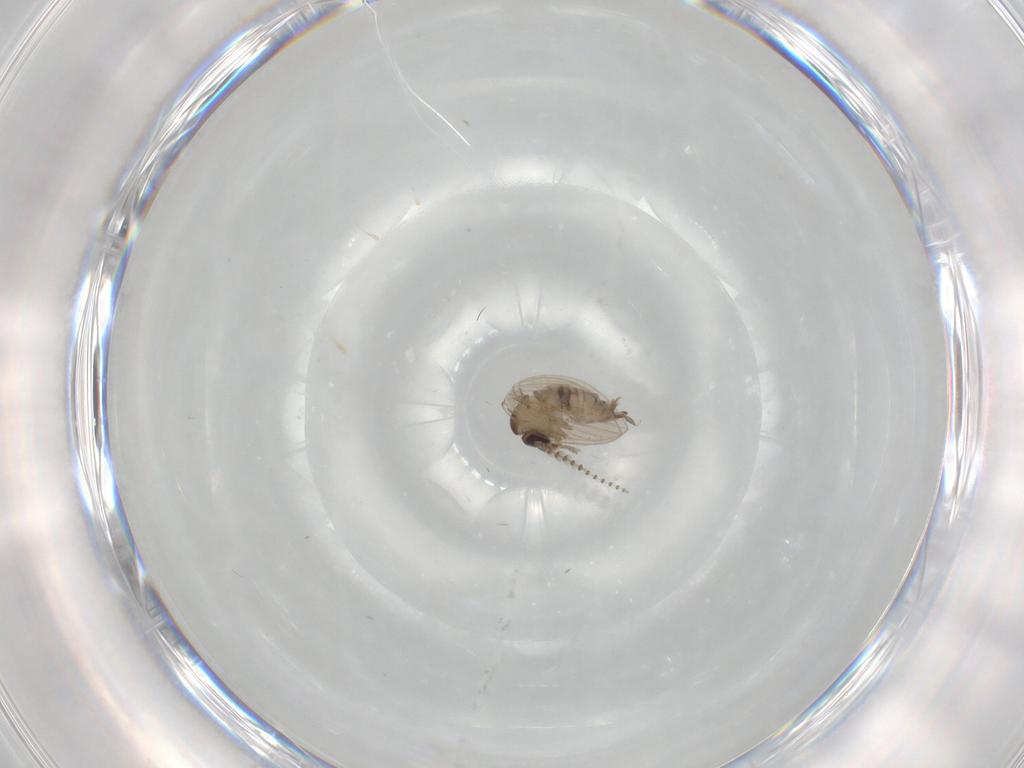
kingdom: Animalia
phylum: Arthropoda
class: Insecta
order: Diptera
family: Psychodidae
